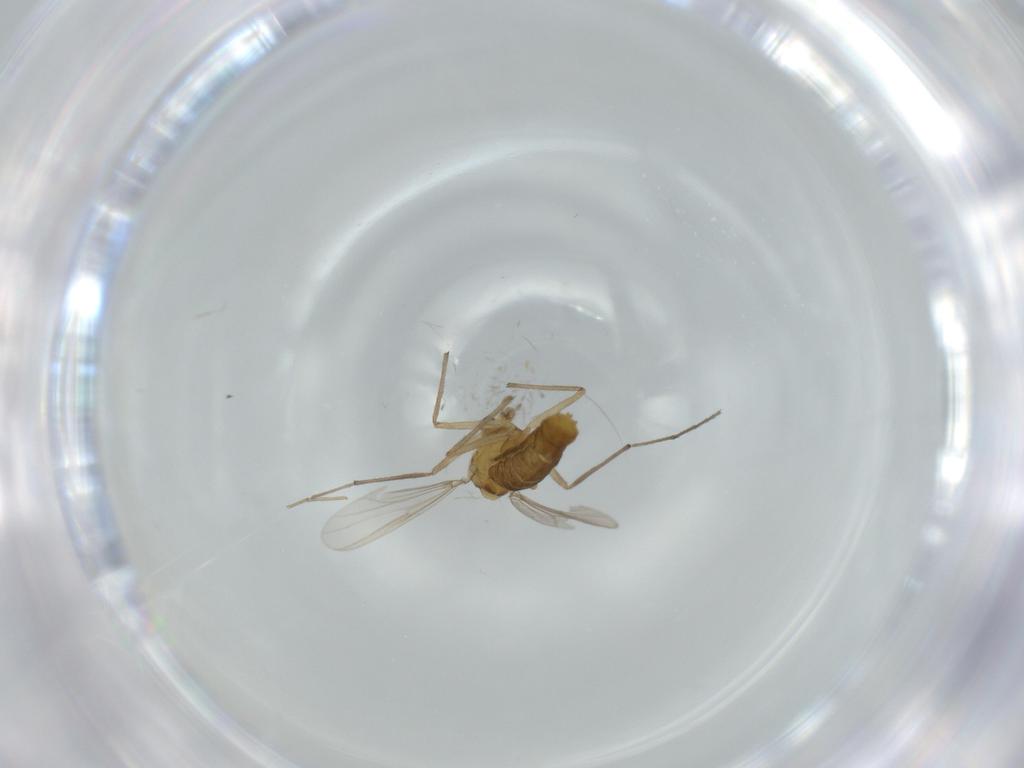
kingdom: Animalia
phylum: Arthropoda
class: Insecta
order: Diptera
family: Chironomidae
